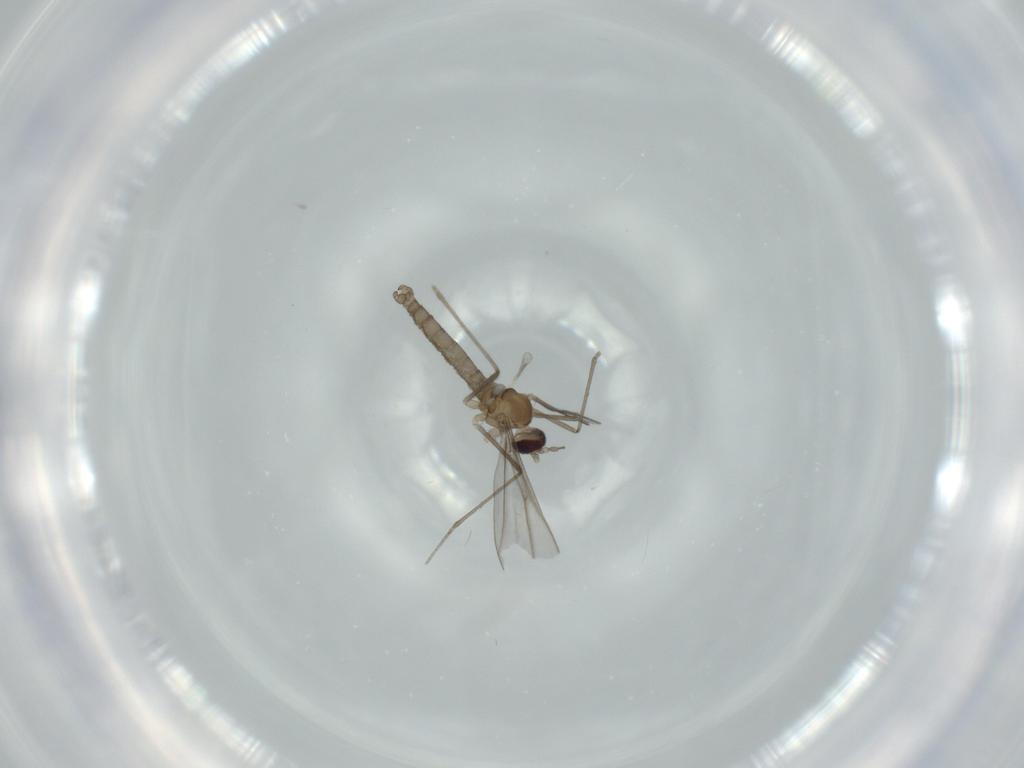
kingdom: Animalia
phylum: Arthropoda
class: Insecta
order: Diptera
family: Cecidomyiidae
